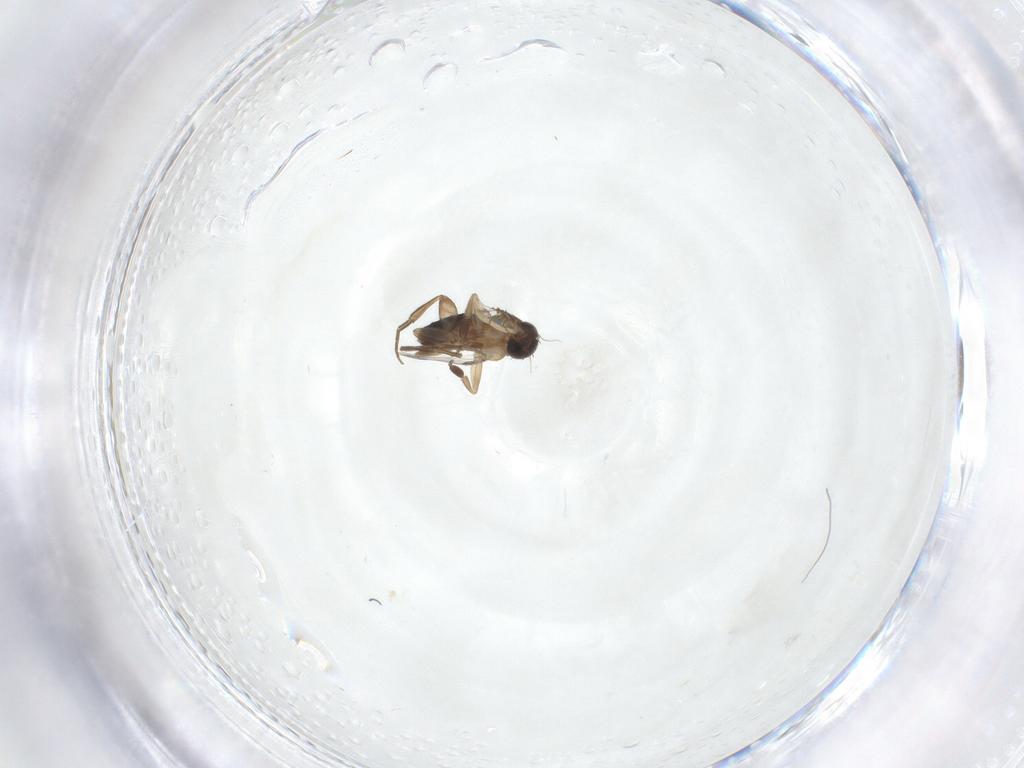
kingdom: Animalia
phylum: Arthropoda
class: Insecta
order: Diptera
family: Phoridae
